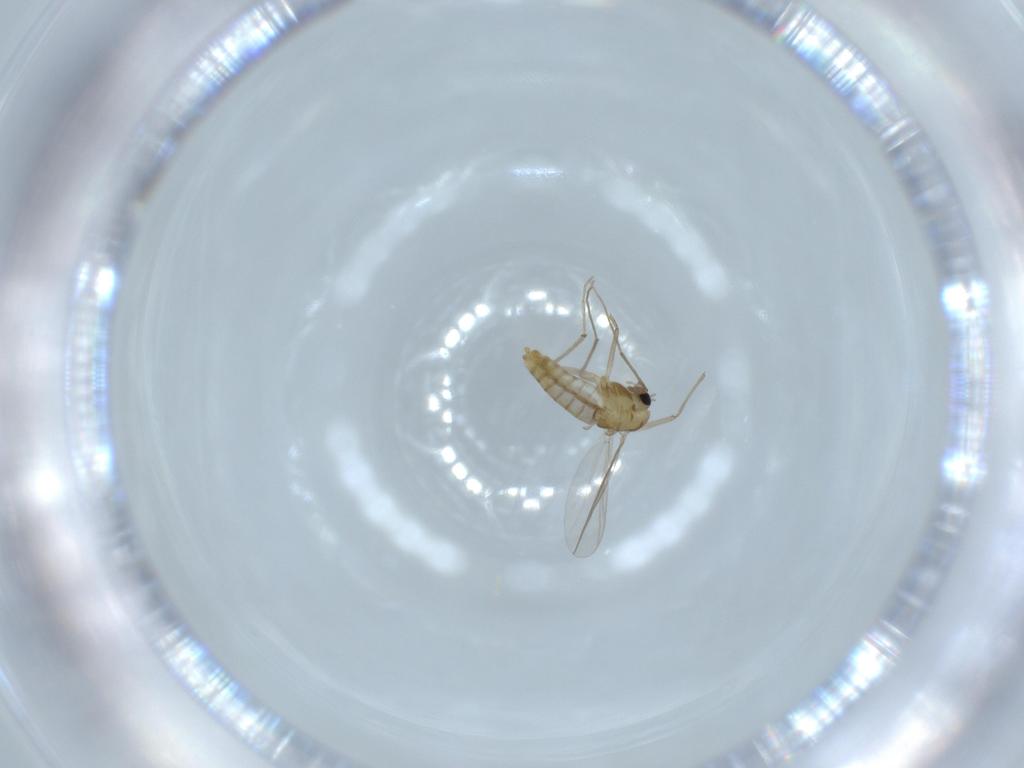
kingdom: Animalia
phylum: Arthropoda
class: Insecta
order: Diptera
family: Chironomidae
